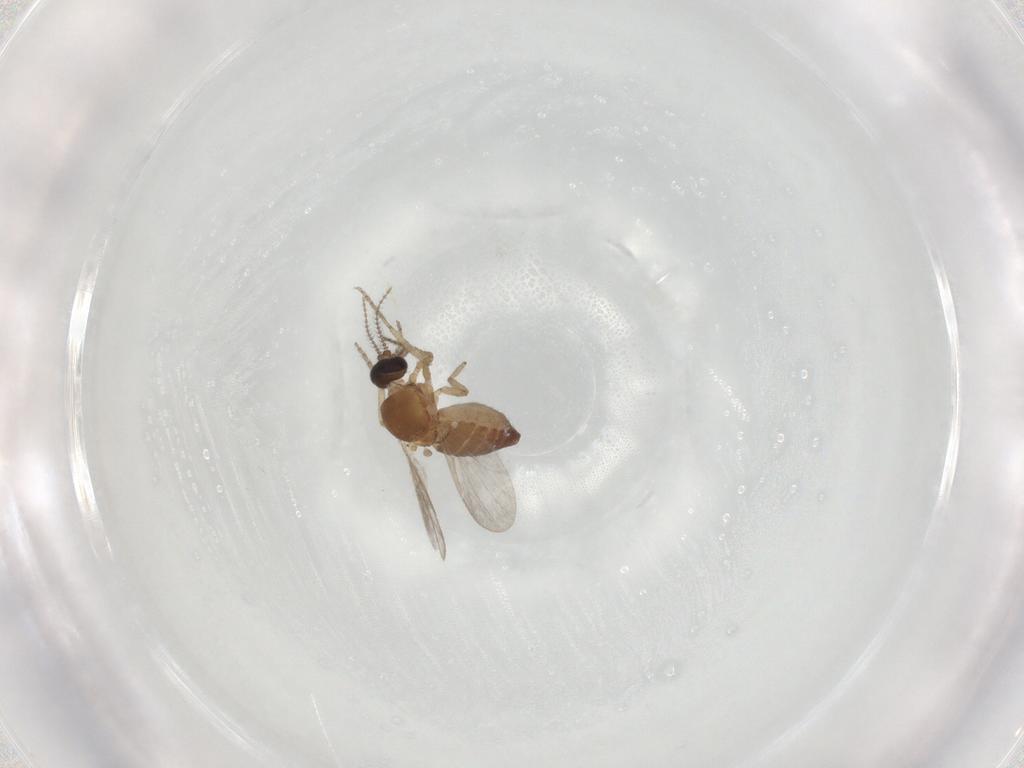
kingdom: Animalia
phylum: Arthropoda
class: Insecta
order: Diptera
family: Ceratopogonidae
